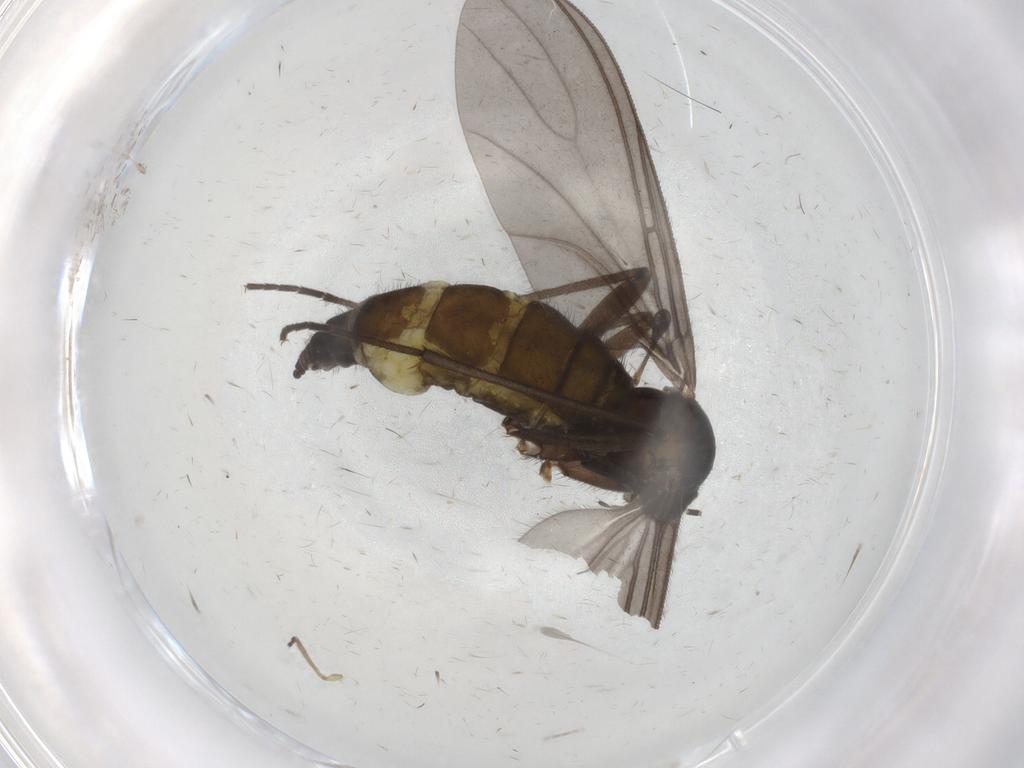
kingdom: Animalia
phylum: Arthropoda
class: Insecta
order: Diptera
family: Sciaridae
